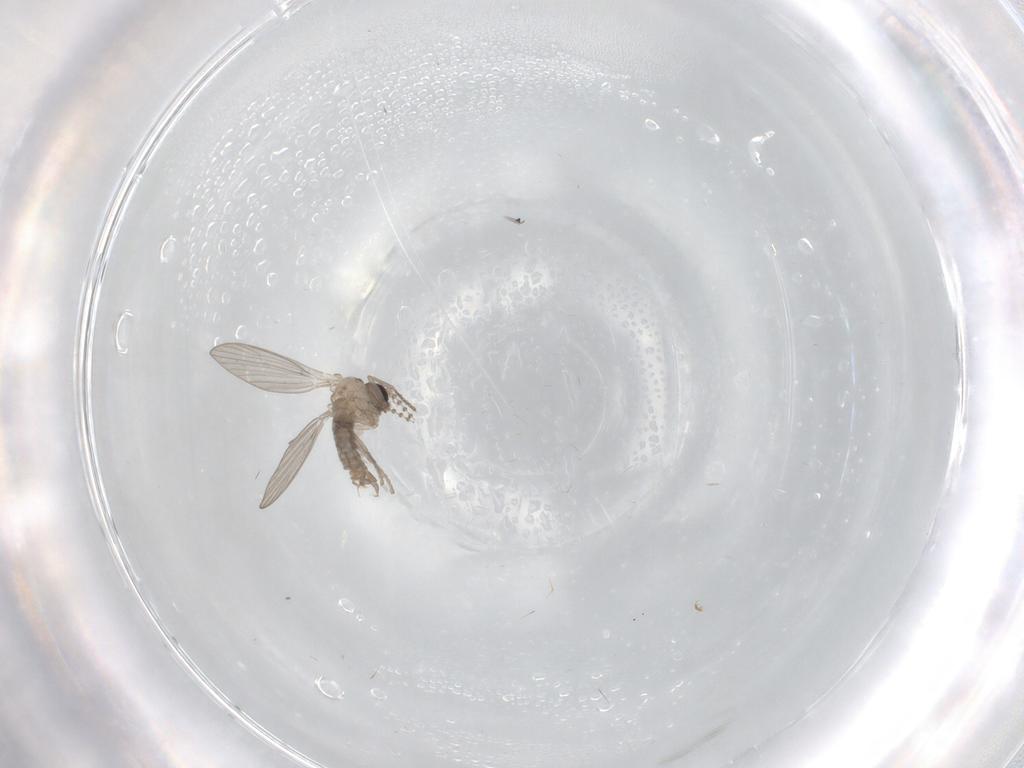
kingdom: Animalia
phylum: Arthropoda
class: Insecta
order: Diptera
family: Psychodidae
